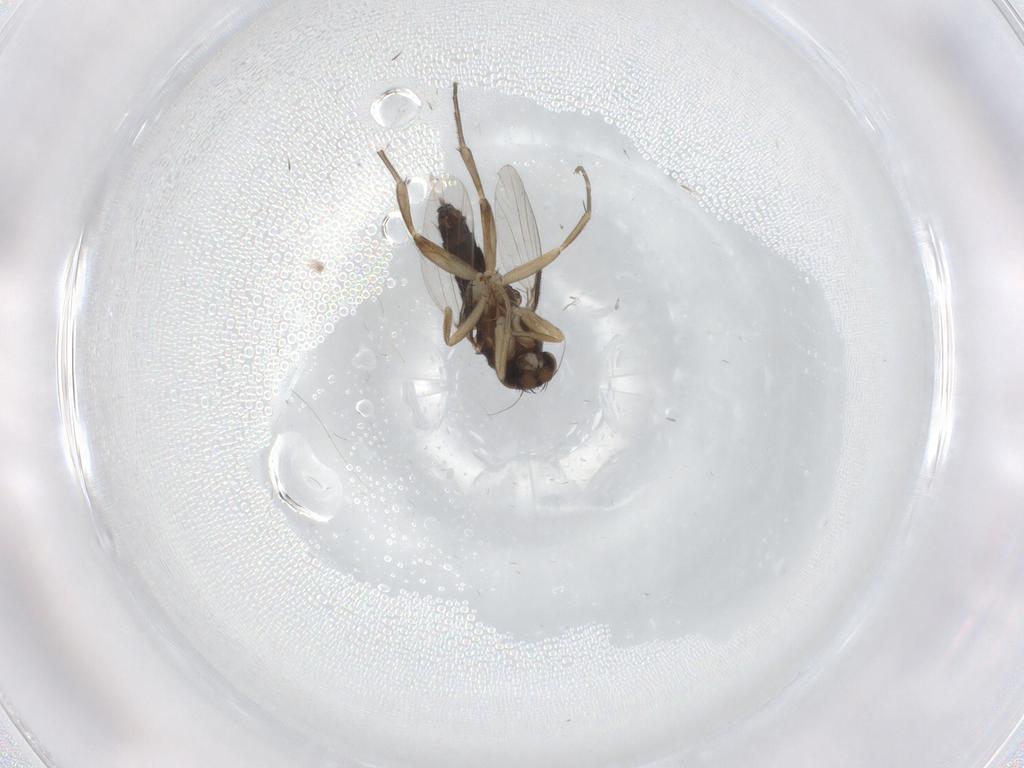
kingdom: Animalia
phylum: Arthropoda
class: Insecta
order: Diptera
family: Phoridae
